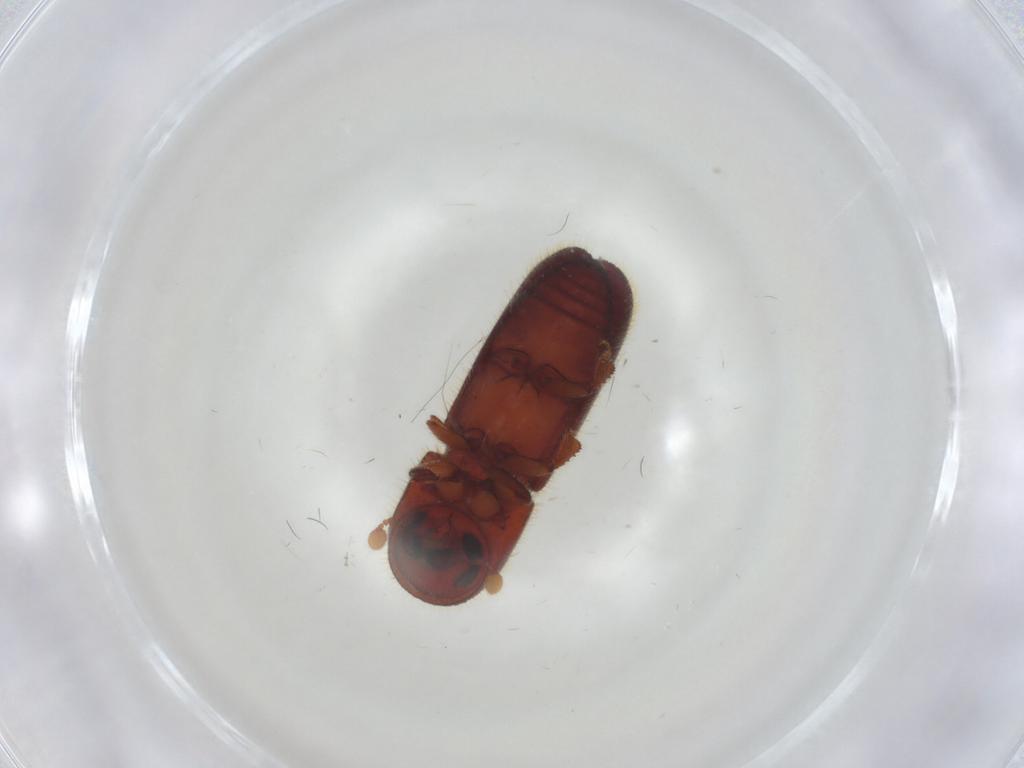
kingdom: Animalia
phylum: Arthropoda
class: Insecta
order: Coleoptera
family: Corylophidae
